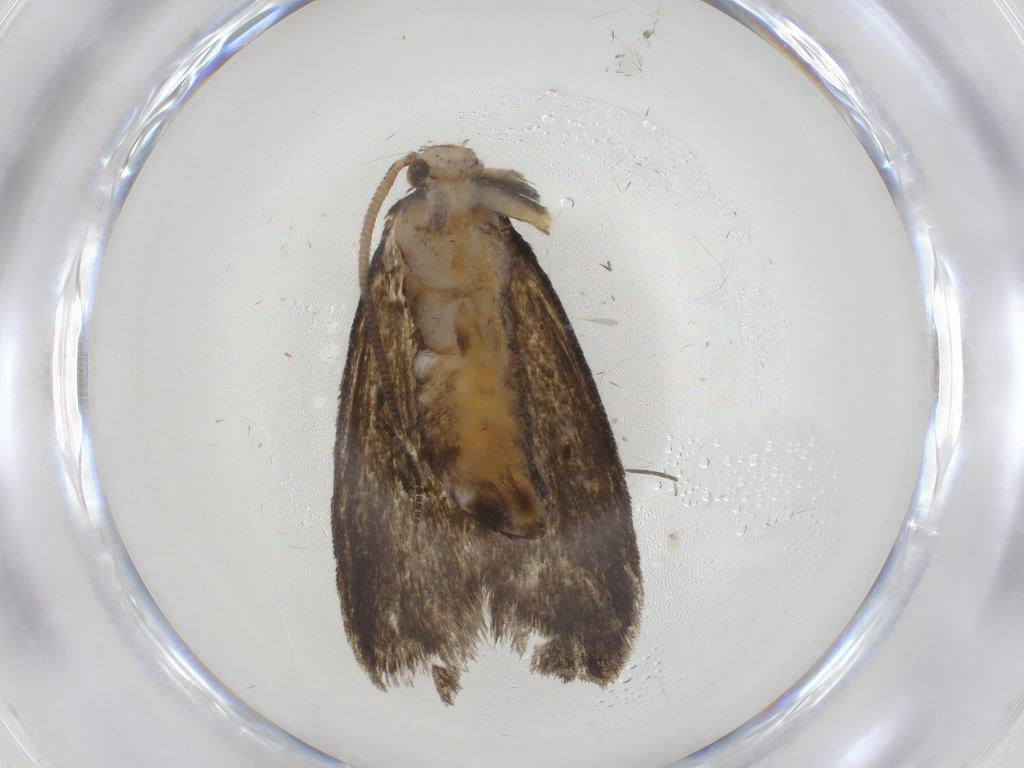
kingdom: Animalia
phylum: Arthropoda
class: Insecta
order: Lepidoptera
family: Dryadaulidae
